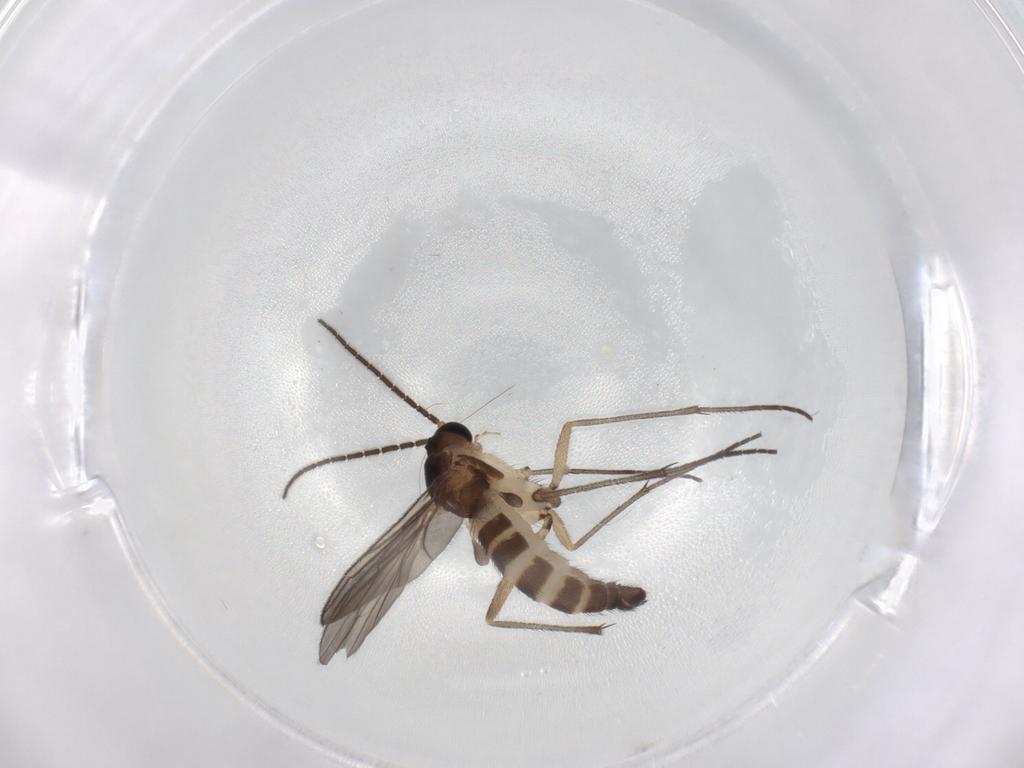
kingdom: Animalia
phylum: Arthropoda
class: Insecta
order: Diptera
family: Sciaridae
